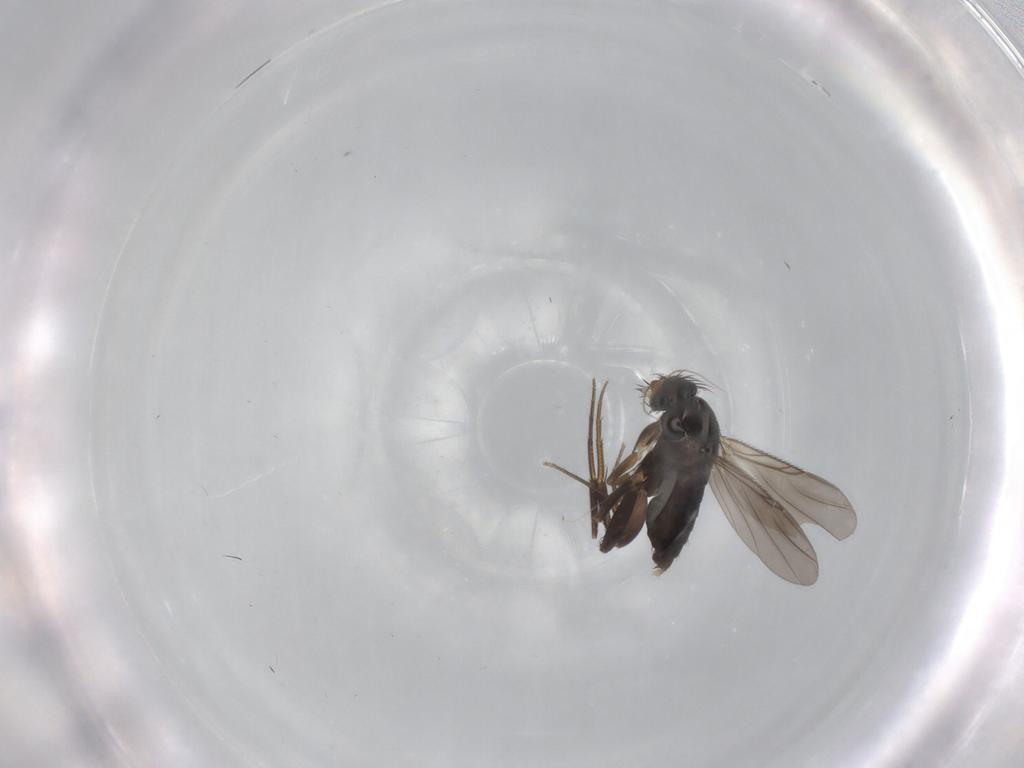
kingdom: Animalia
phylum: Arthropoda
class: Insecta
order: Diptera
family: Phoridae
